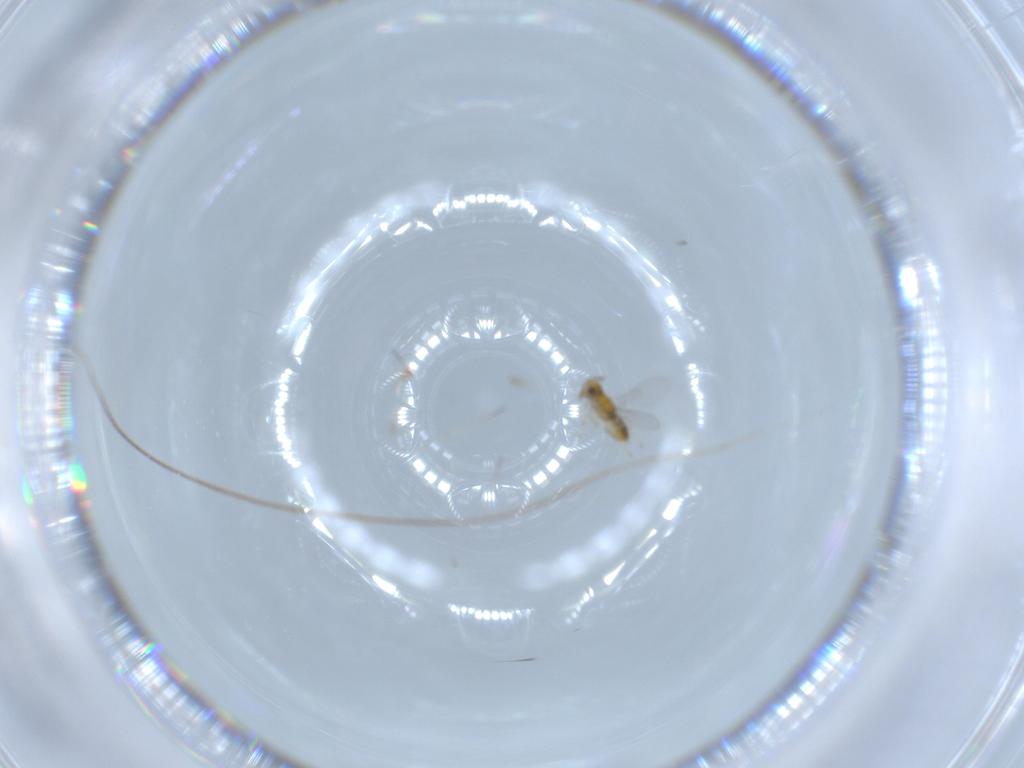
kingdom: Animalia
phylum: Arthropoda
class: Insecta
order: Hymenoptera
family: Encyrtidae
